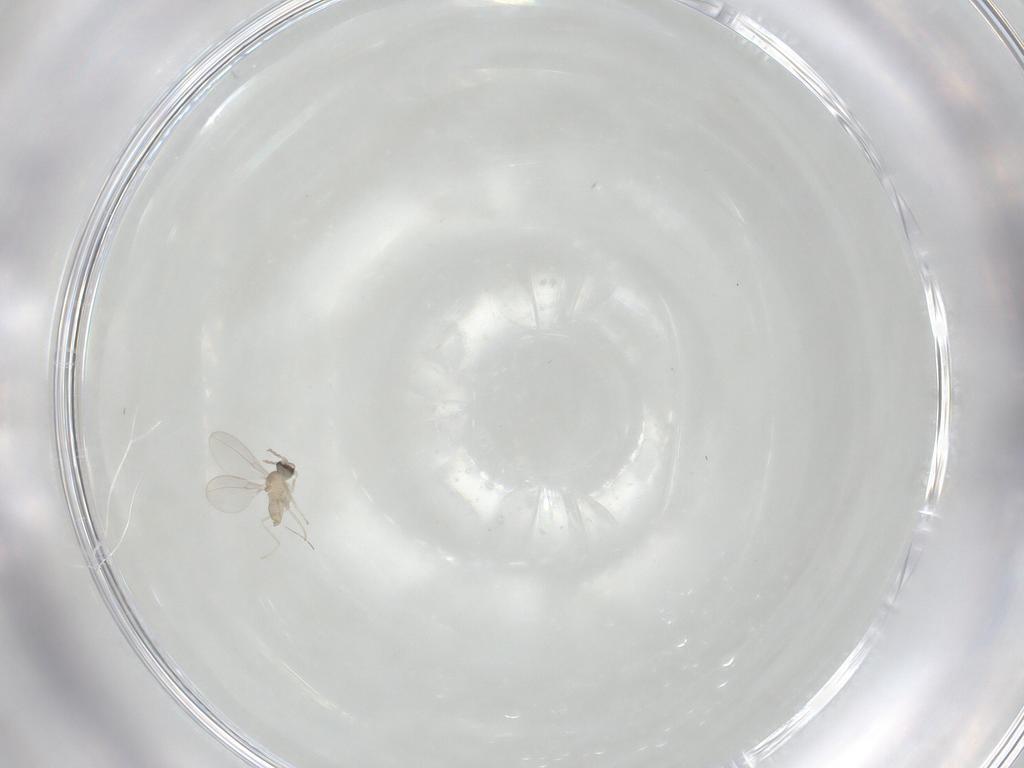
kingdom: Animalia
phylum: Arthropoda
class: Insecta
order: Diptera
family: Cecidomyiidae
